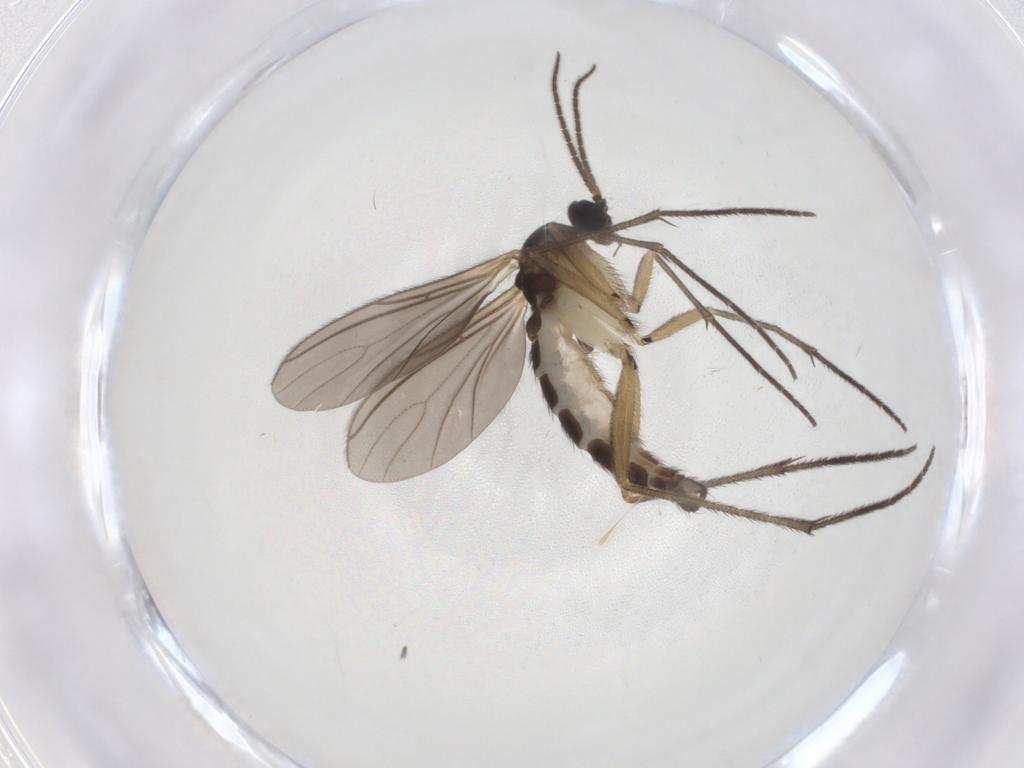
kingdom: Animalia
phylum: Arthropoda
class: Insecta
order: Diptera
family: Sciaridae
